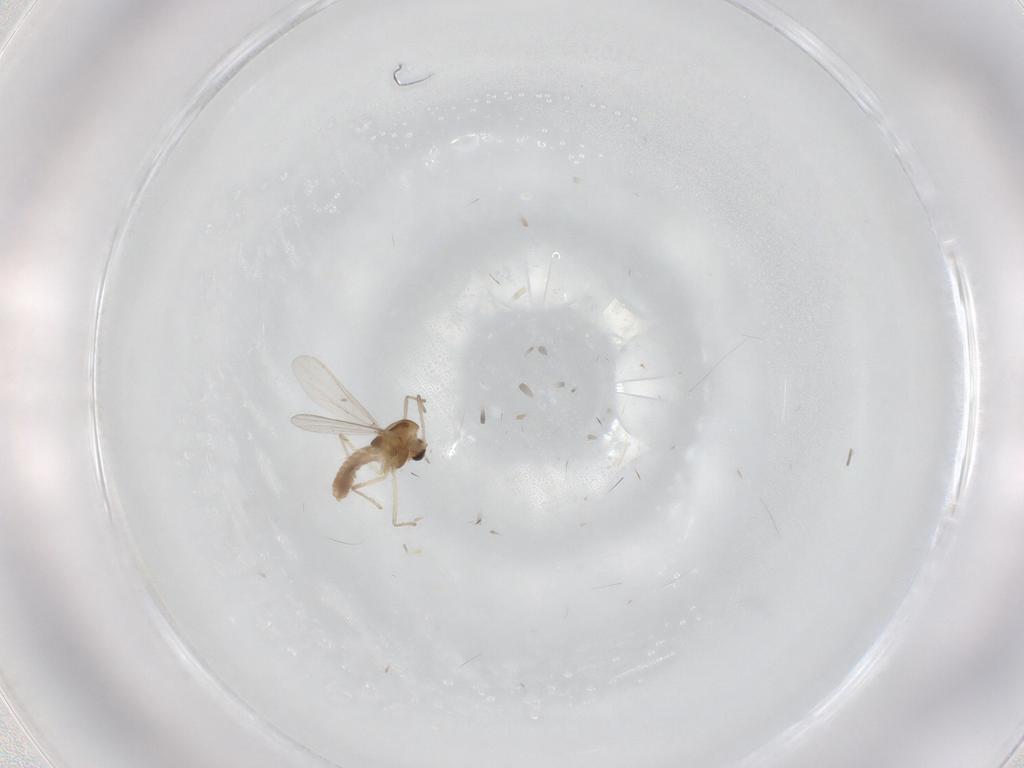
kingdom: Animalia
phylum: Arthropoda
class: Insecta
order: Diptera
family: Chironomidae
